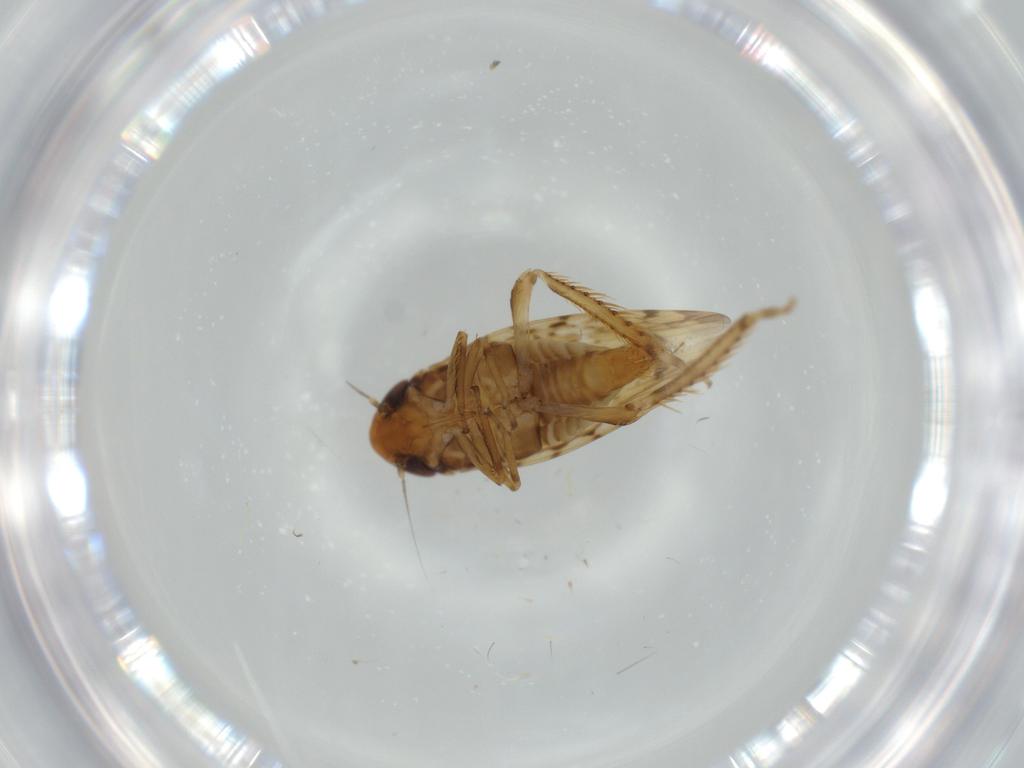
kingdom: Animalia
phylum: Arthropoda
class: Insecta
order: Hemiptera
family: Cicadellidae
